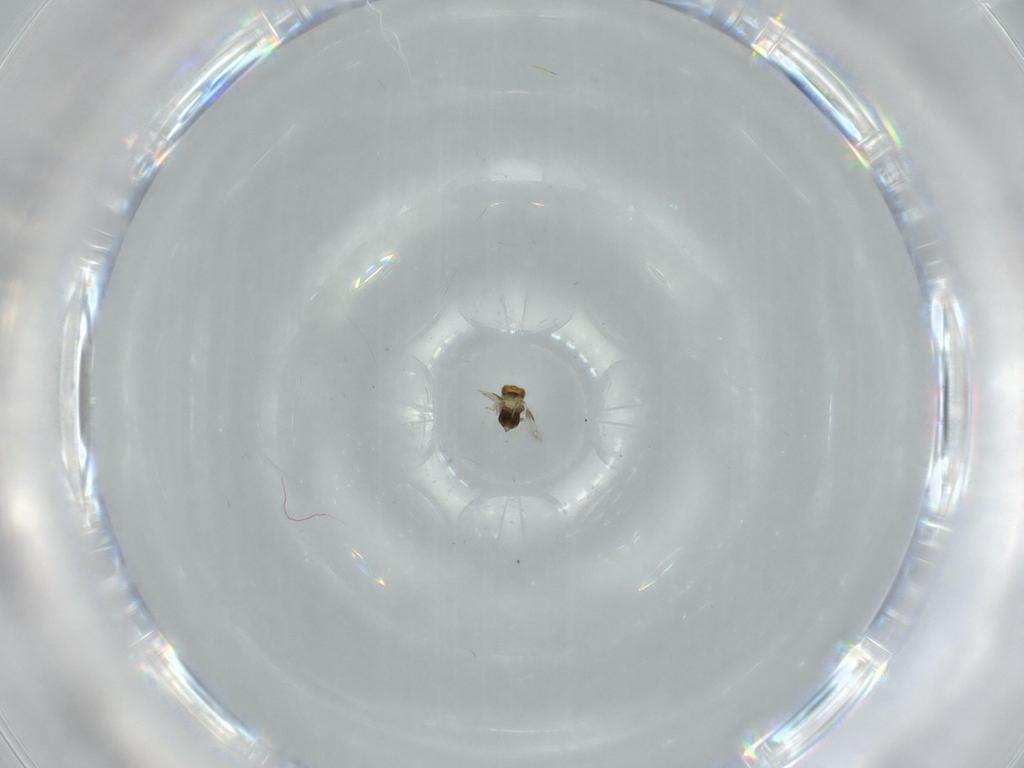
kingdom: Animalia
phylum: Arthropoda
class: Insecta
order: Hymenoptera
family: Aphelinidae
